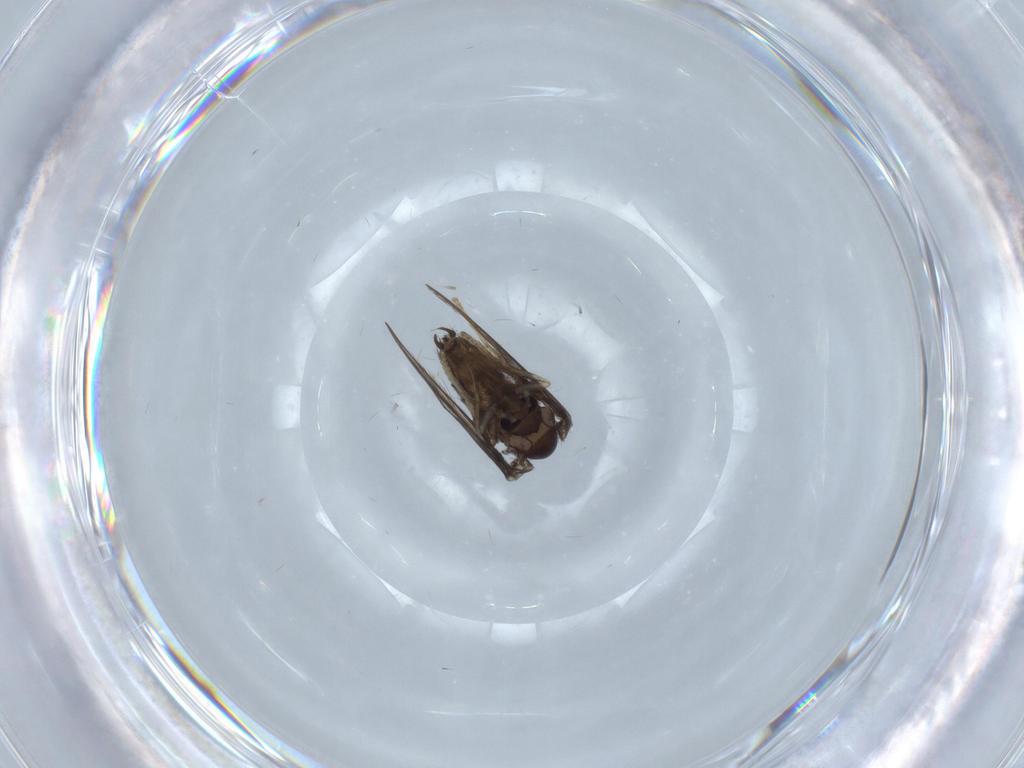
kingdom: Animalia
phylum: Arthropoda
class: Insecta
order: Diptera
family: Psychodidae
